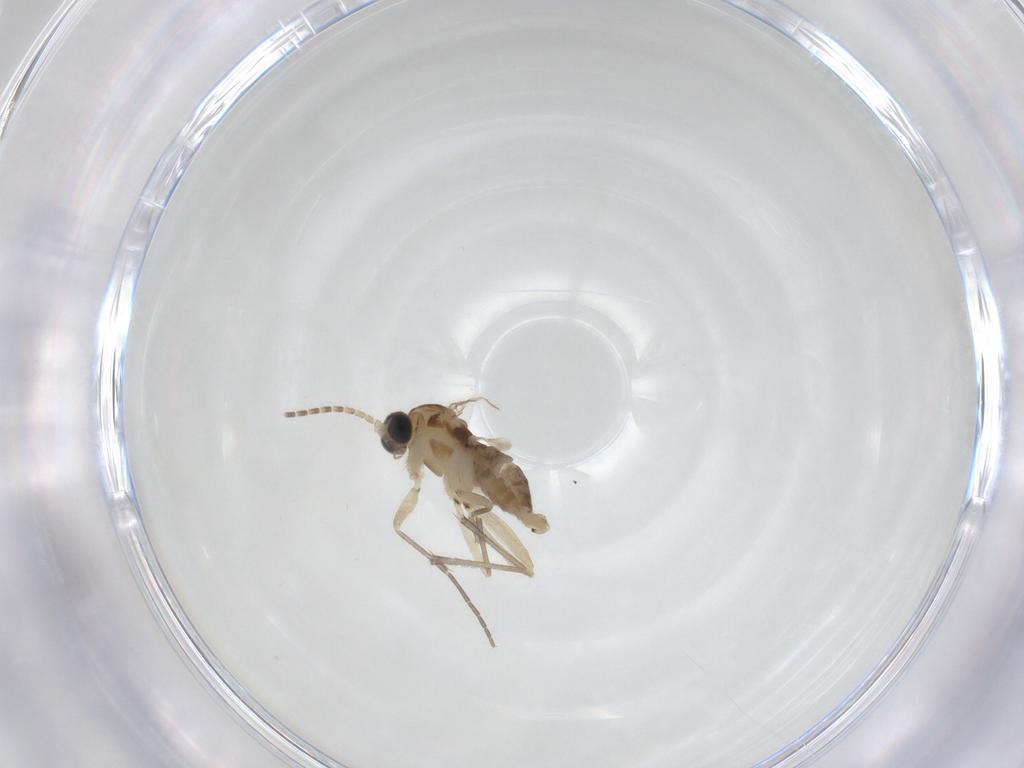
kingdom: Animalia
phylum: Arthropoda
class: Insecta
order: Diptera
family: Sciaridae
